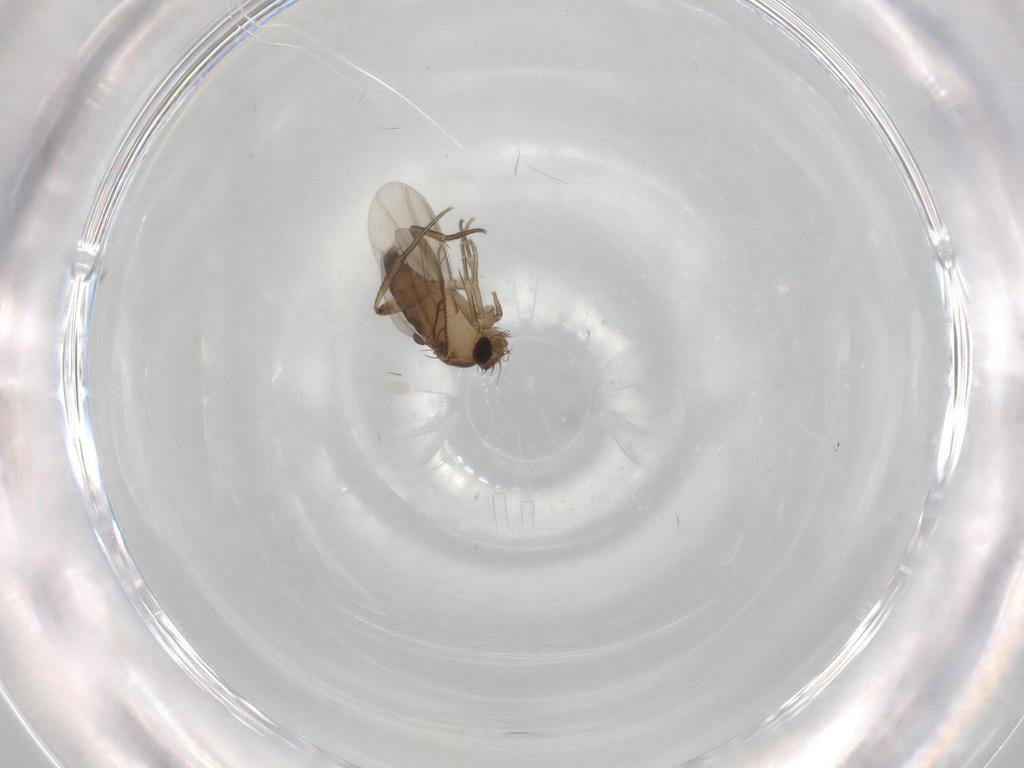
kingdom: Animalia
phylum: Arthropoda
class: Insecta
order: Diptera
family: Phoridae
